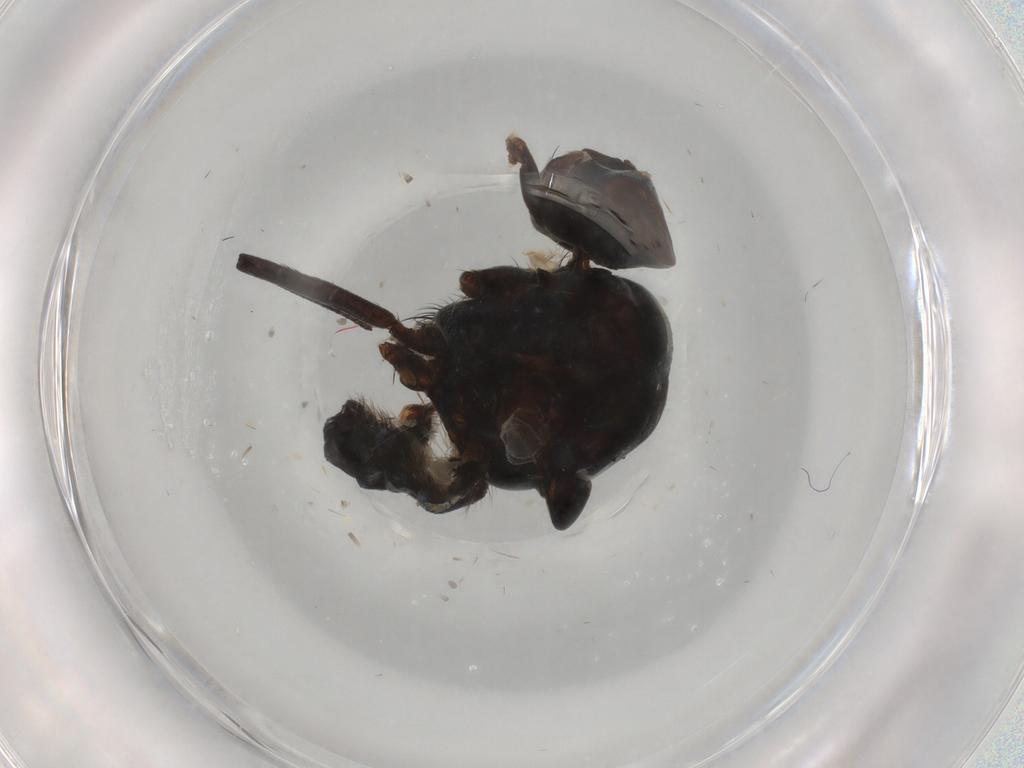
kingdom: Animalia
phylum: Arthropoda
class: Insecta
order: Diptera
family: Anthomyiidae
